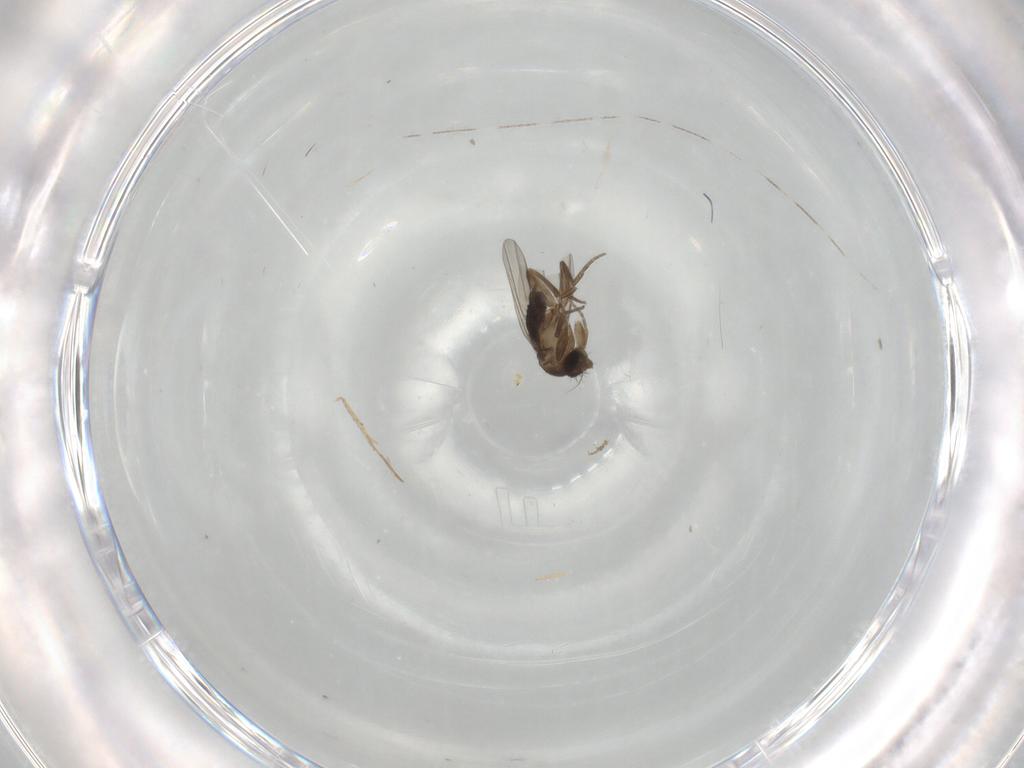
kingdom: Animalia
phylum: Arthropoda
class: Insecta
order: Diptera
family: Phoridae
